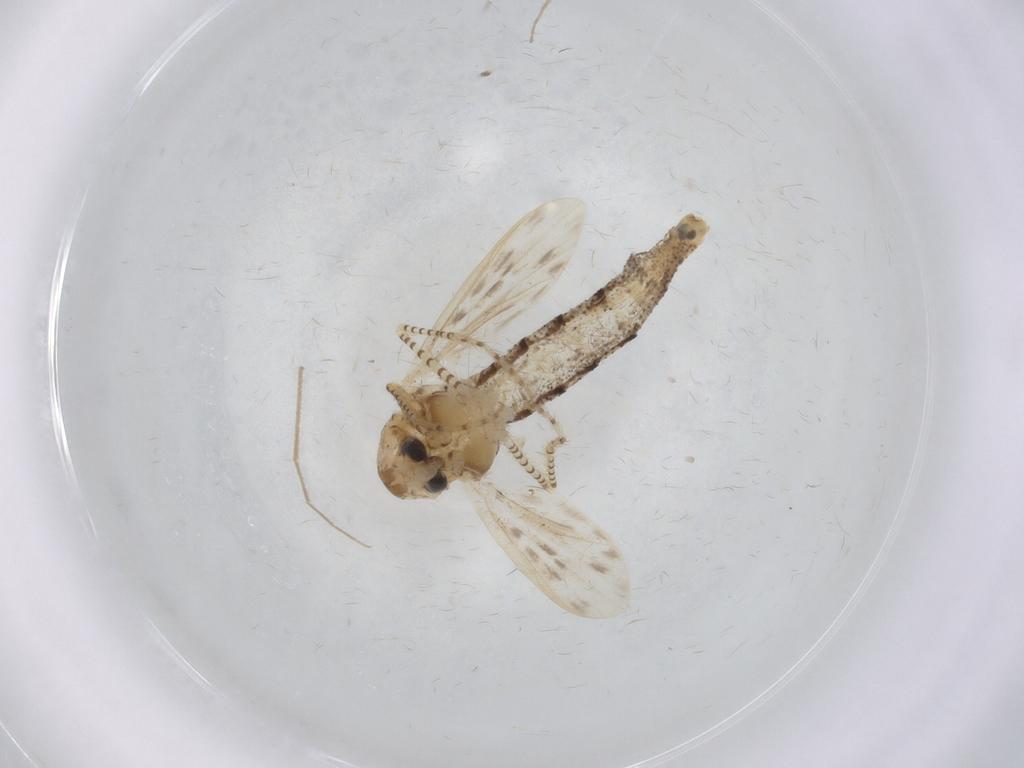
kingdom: Animalia
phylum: Arthropoda
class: Insecta
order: Diptera
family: Chaoboridae
